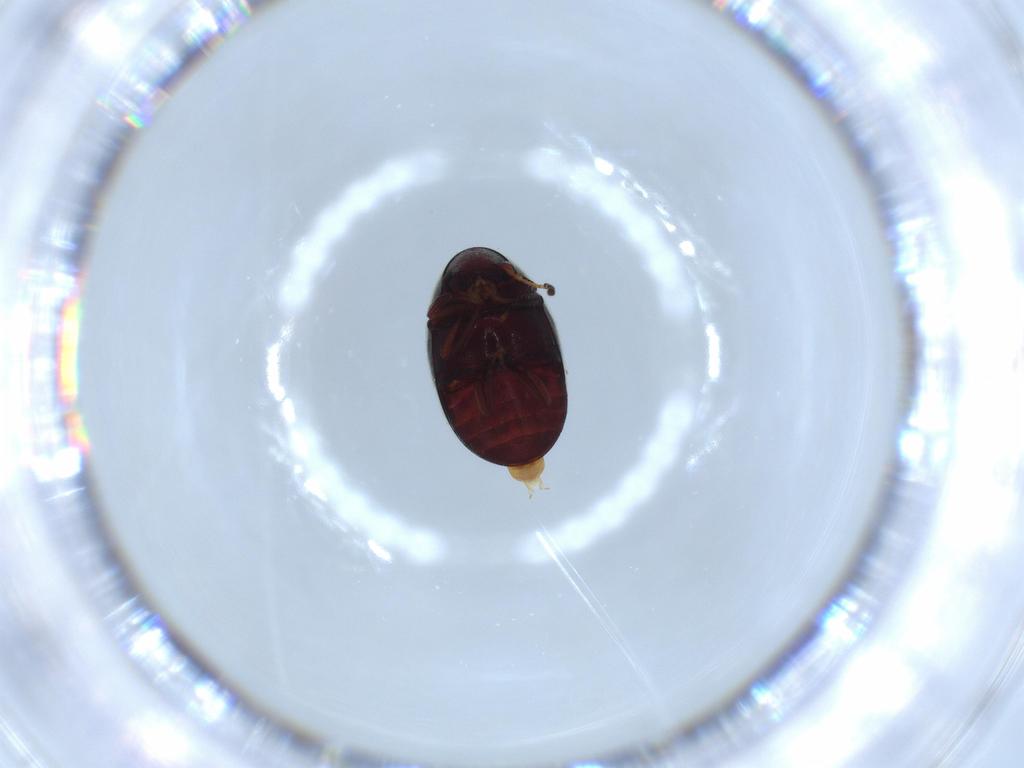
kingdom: Animalia
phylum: Arthropoda
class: Insecta
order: Coleoptera
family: Ptinidae
